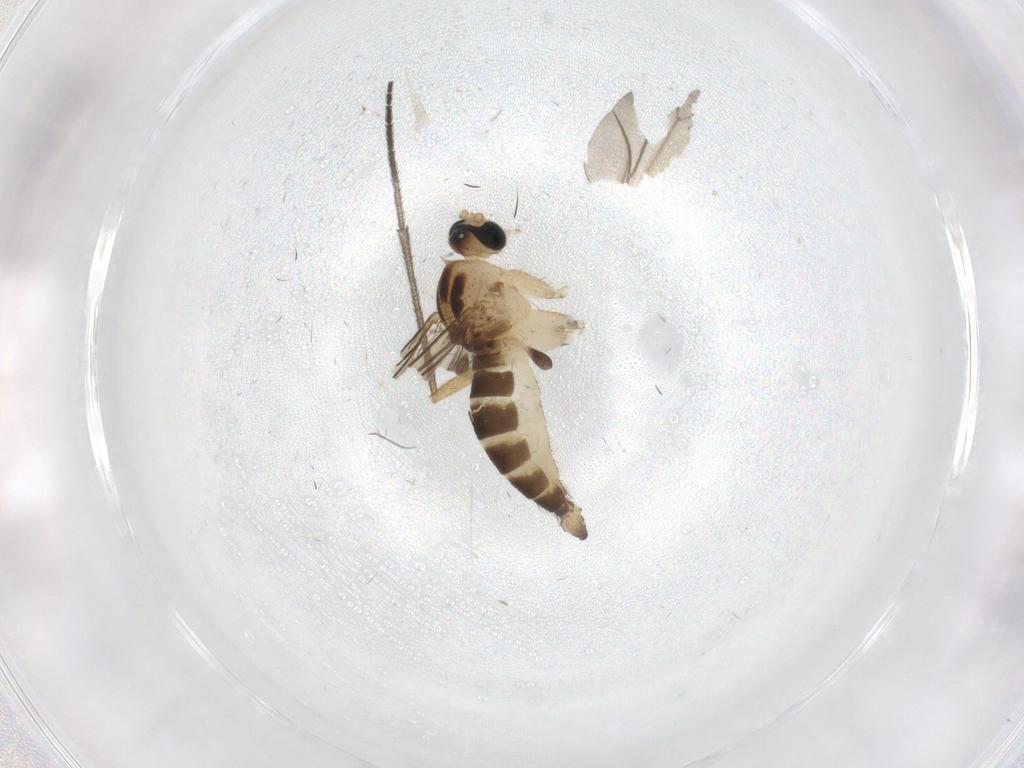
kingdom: Animalia
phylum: Arthropoda
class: Insecta
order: Diptera
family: Sciaridae
